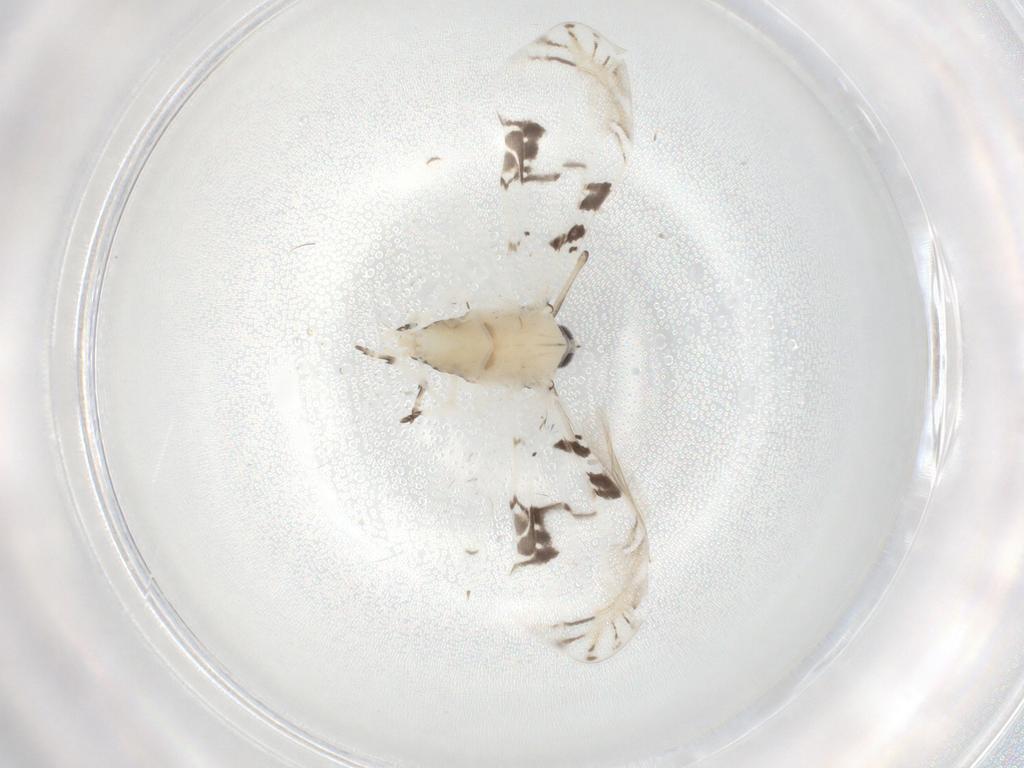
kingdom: Animalia
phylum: Arthropoda
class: Insecta
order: Hemiptera
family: Derbidae
